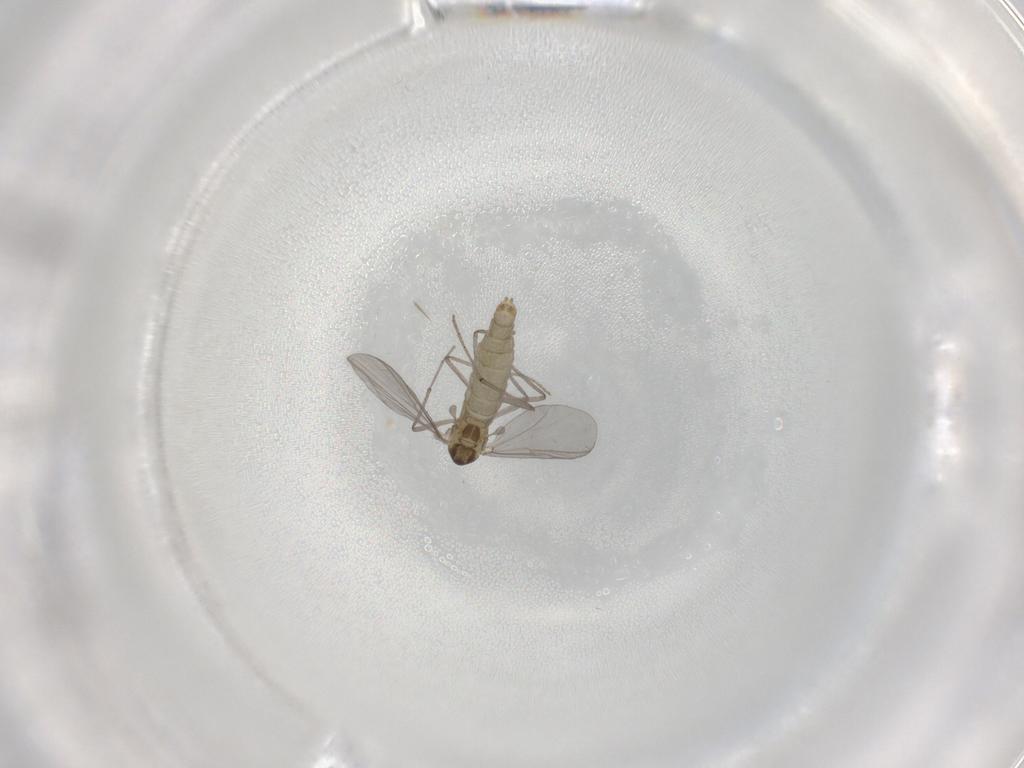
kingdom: Animalia
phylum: Arthropoda
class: Insecta
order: Diptera
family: Chironomidae
